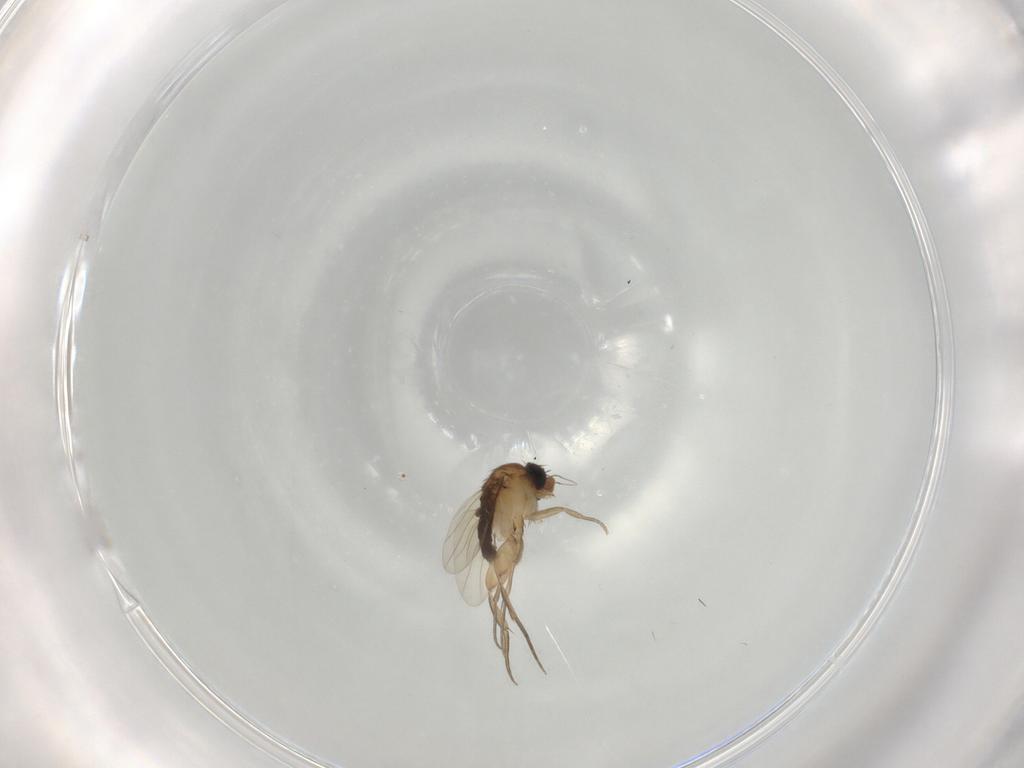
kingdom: Animalia
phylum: Arthropoda
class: Insecta
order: Diptera
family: Phoridae
